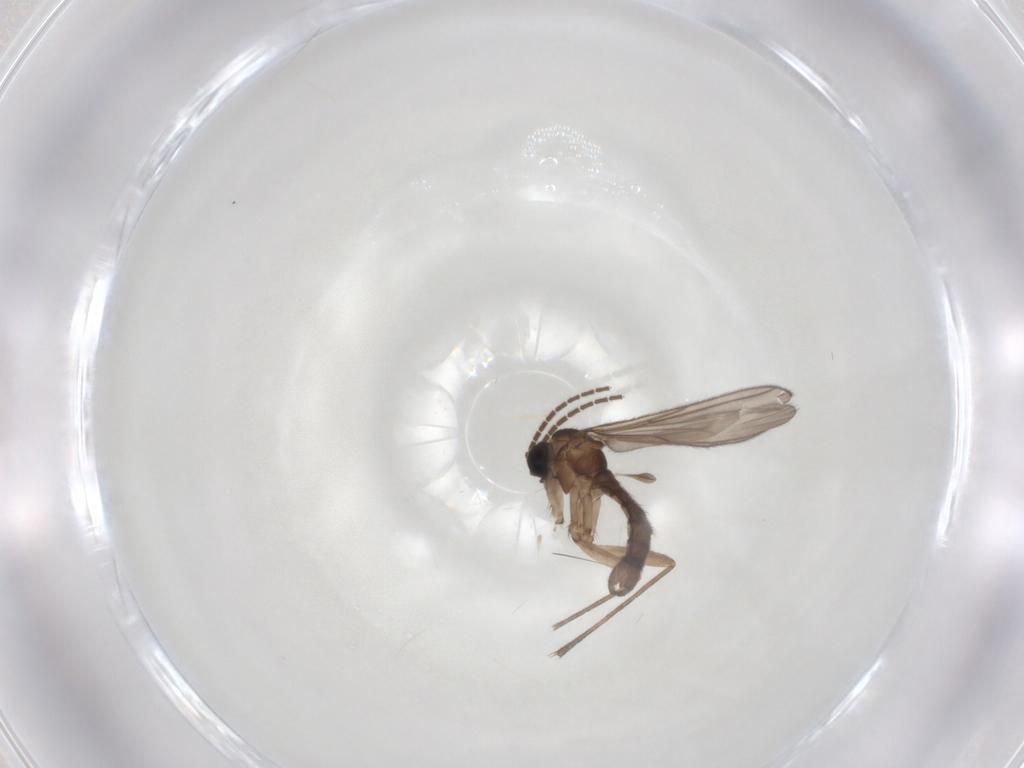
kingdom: Animalia
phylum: Arthropoda
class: Insecta
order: Diptera
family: Sciaridae
